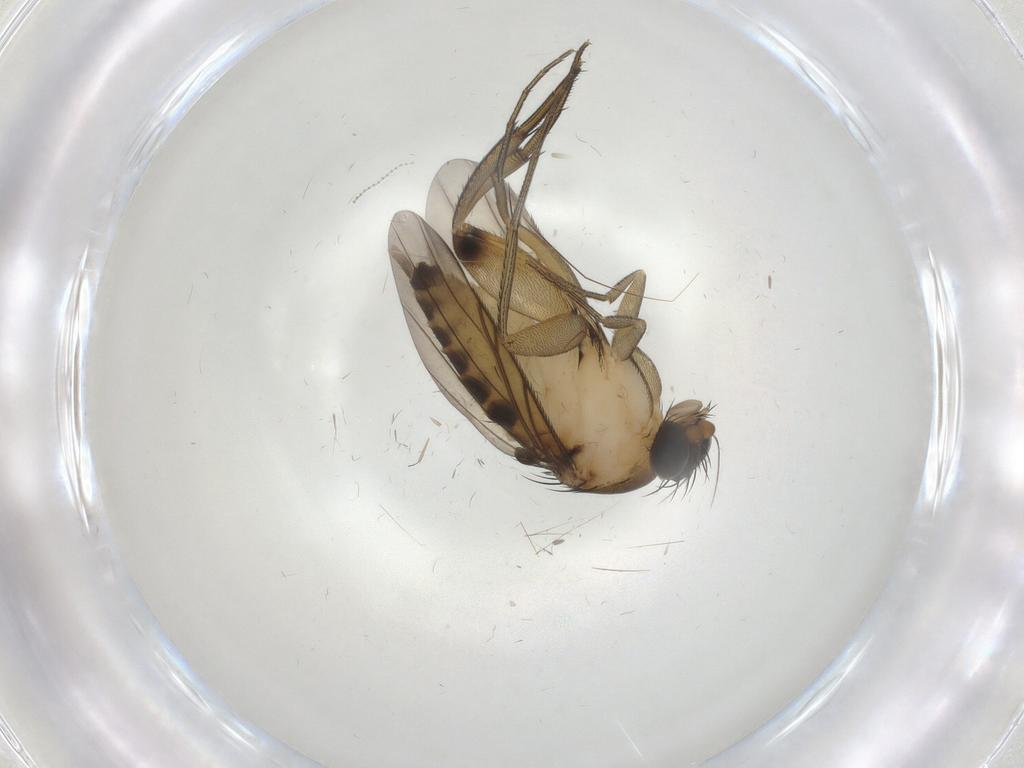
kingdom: Animalia
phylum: Arthropoda
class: Insecta
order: Diptera
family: Phoridae
